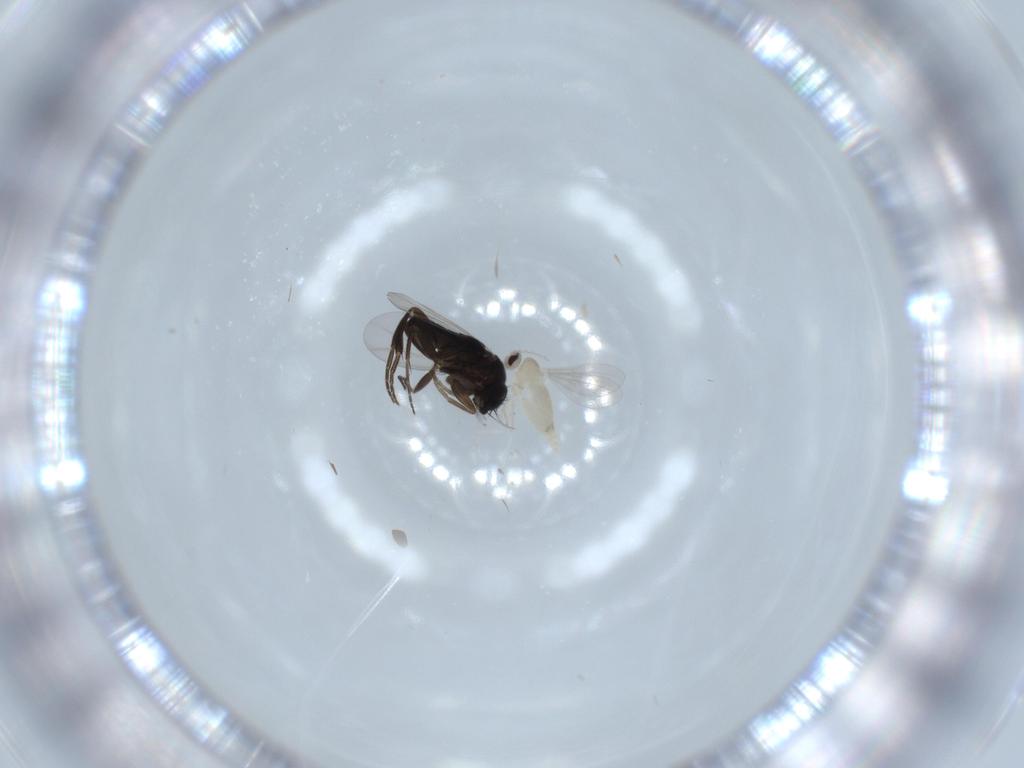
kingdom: Animalia
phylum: Arthropoda
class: Insecta
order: Diptera
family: Cecidomyiidae
